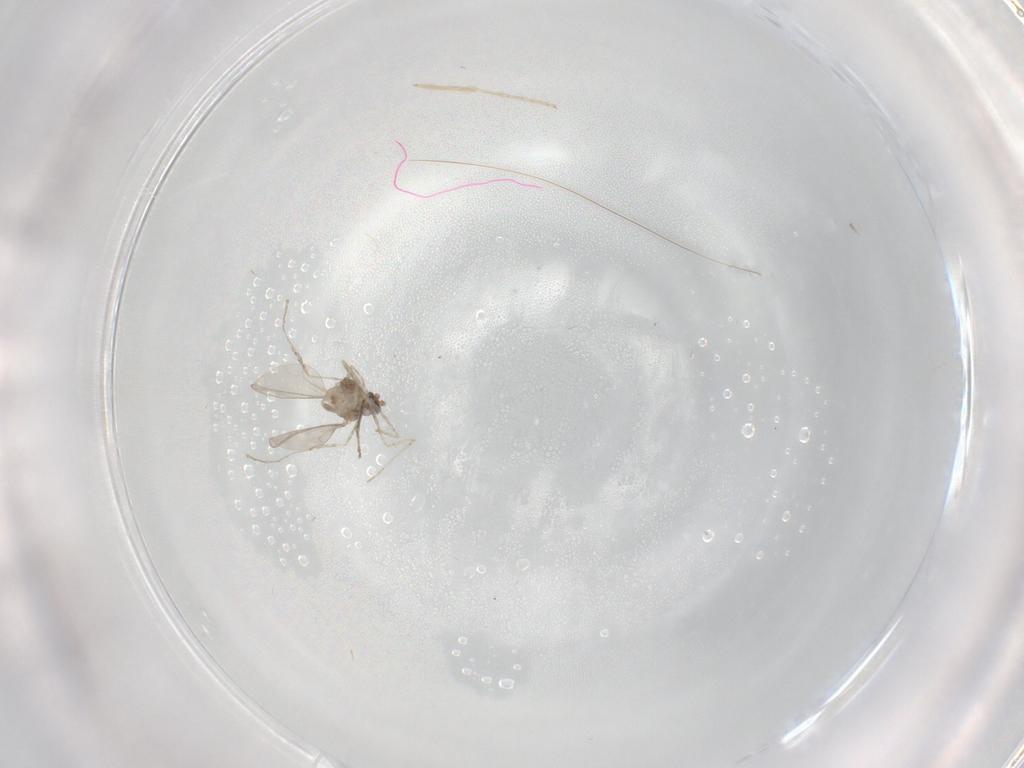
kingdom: Animalia
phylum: Arthropoda
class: Insecta
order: Diptera
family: Cecidomyiidae
